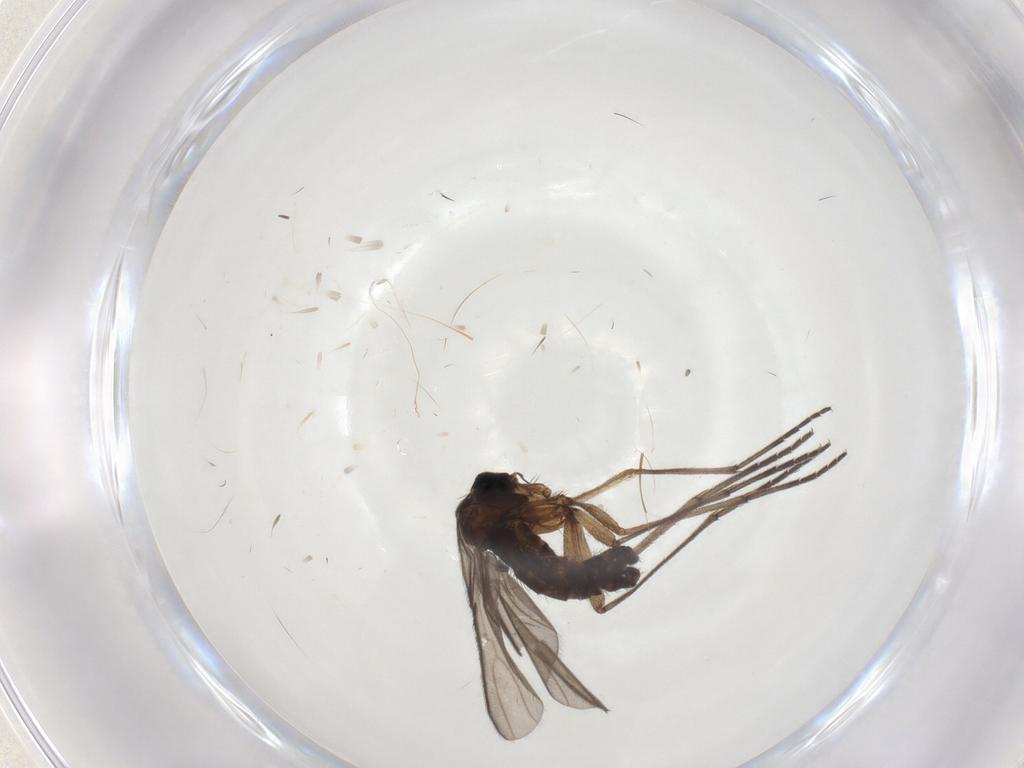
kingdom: Animalia
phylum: Arthropoda
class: Insecta
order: Diptera
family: Sciaridae
